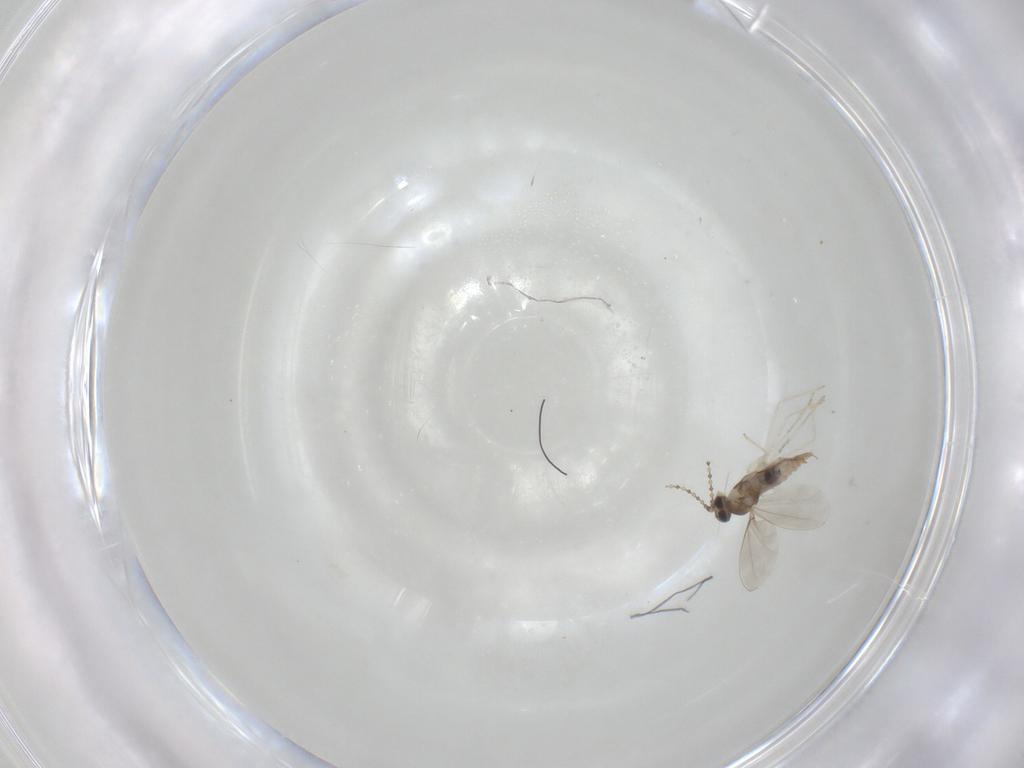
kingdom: Animalia
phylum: Arthropoda
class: Insecta
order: Diptera
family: Cecidomyiidae
